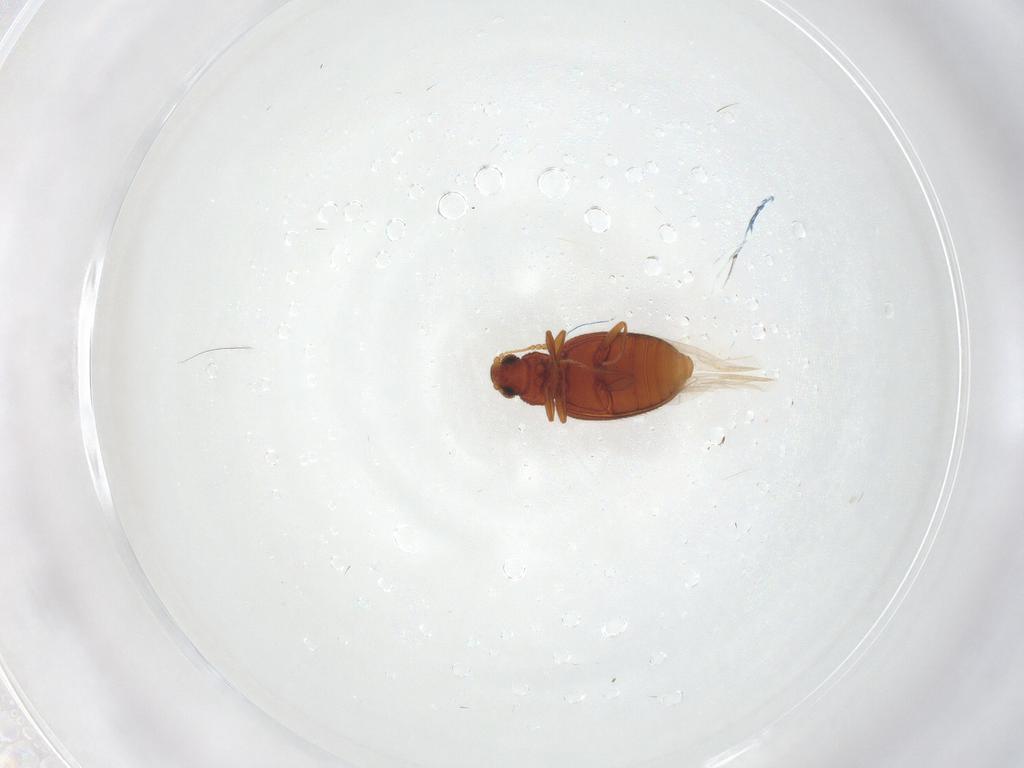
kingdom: Animalia
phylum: Arthropoda
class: Insecta
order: Coleoptera
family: Latridiidae
